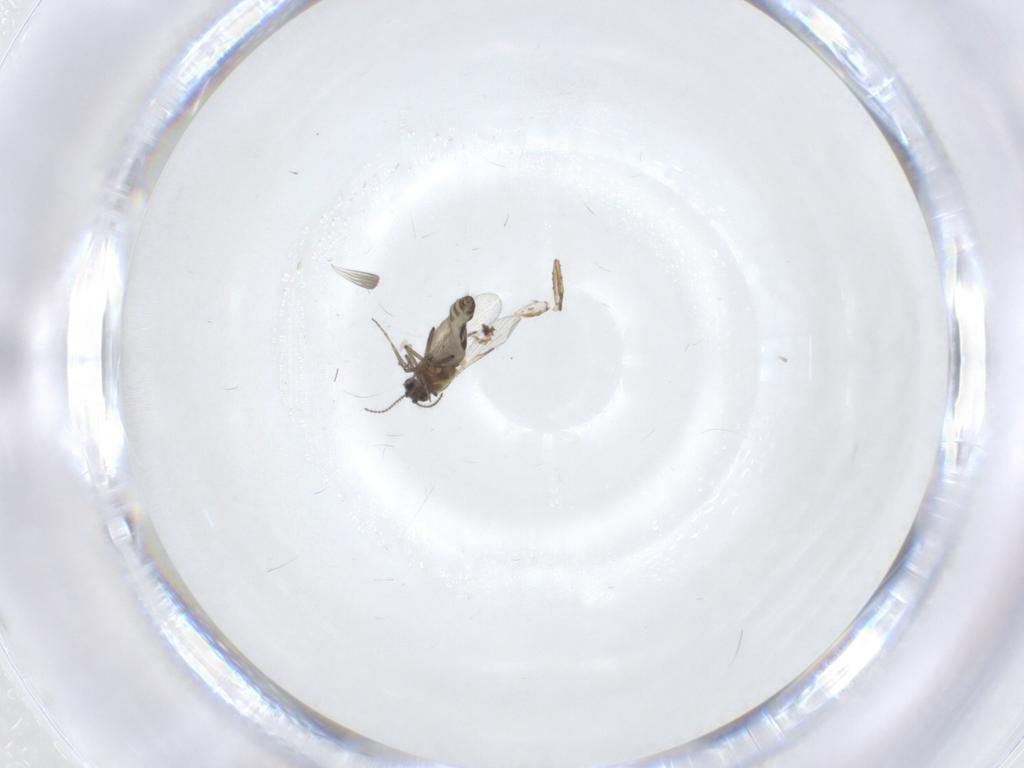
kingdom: Animalia
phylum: Arthropoda
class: Insecta
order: Diptera
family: Ceratopogonidae
